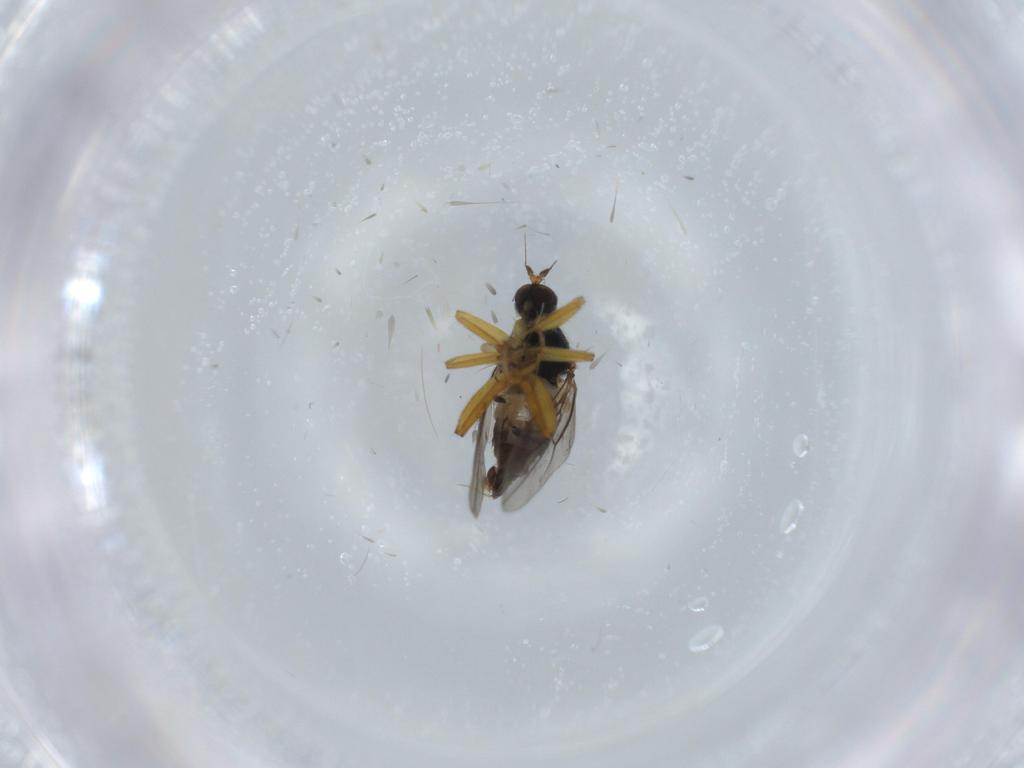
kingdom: Animalia
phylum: Arthropoda
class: Insecta
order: Diptera
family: Hybotidae
